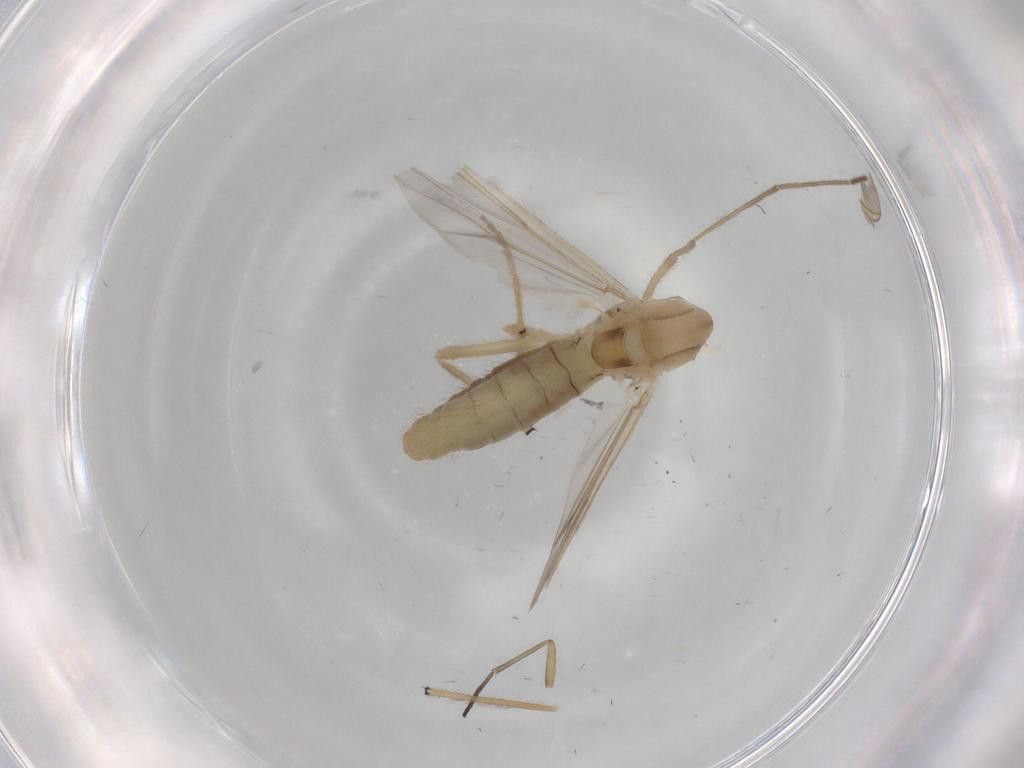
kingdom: Animalia
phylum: Arthropoda
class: Insecta
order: Diptera
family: Chironomidae
